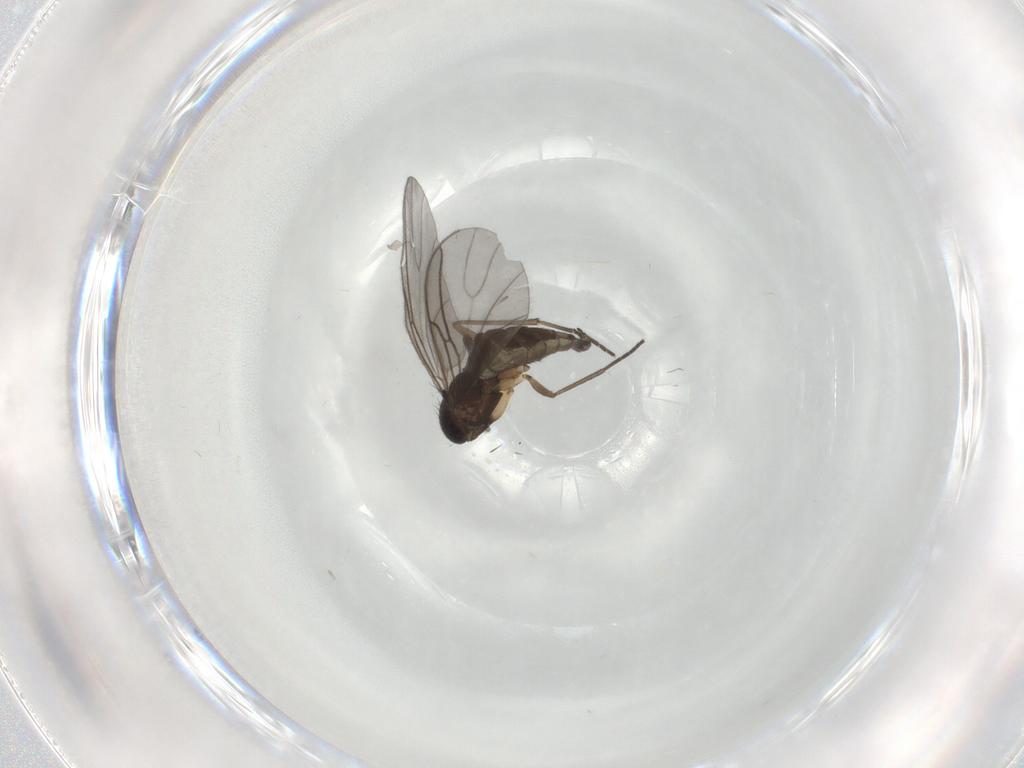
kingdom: Animalia
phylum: Arthropoda
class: Insecta
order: Diptera
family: Sciaridae
